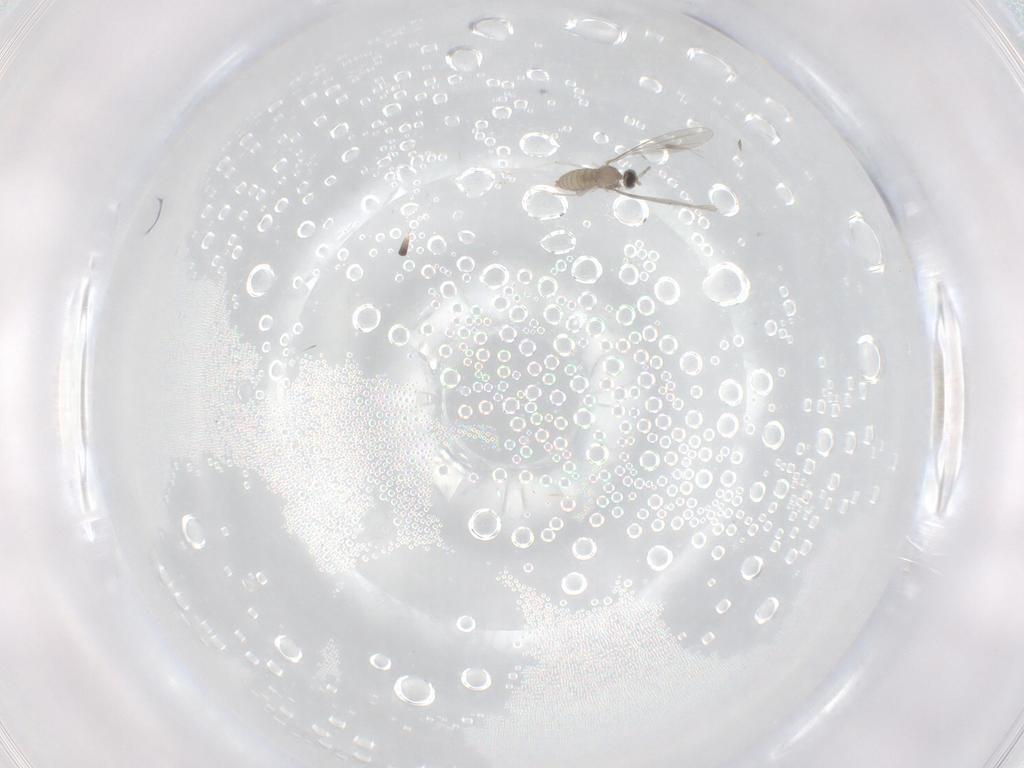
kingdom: Animalia
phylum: Arthropoda
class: Insecta
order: Diptera
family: Cecidomyiidae
